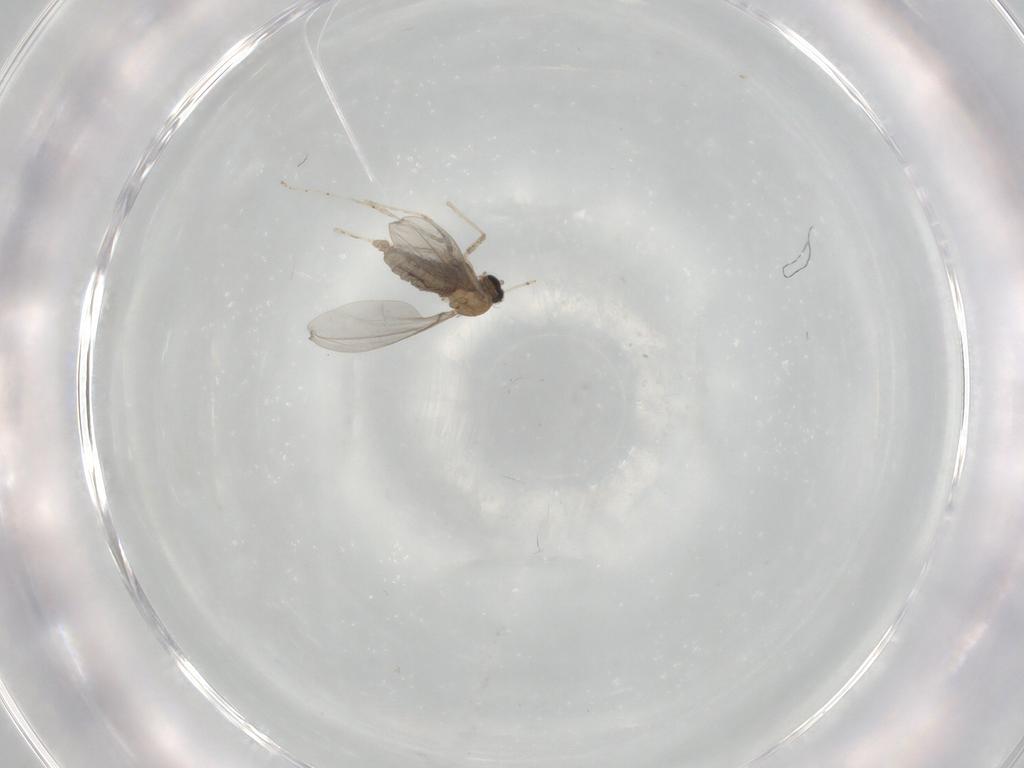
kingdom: Animalia
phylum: Arthropoda
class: Insecta
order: Diptera
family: Cecidomyiidae
